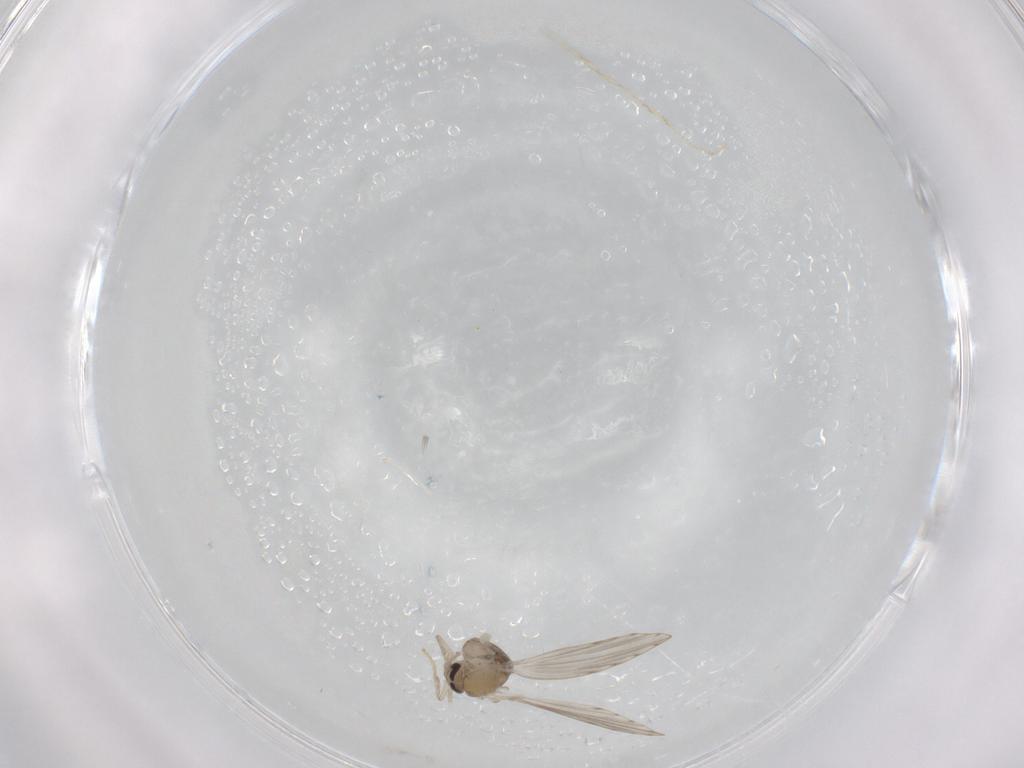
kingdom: Animalia
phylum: Arthropoda
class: Insecta
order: Diptera
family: Psychodidae
